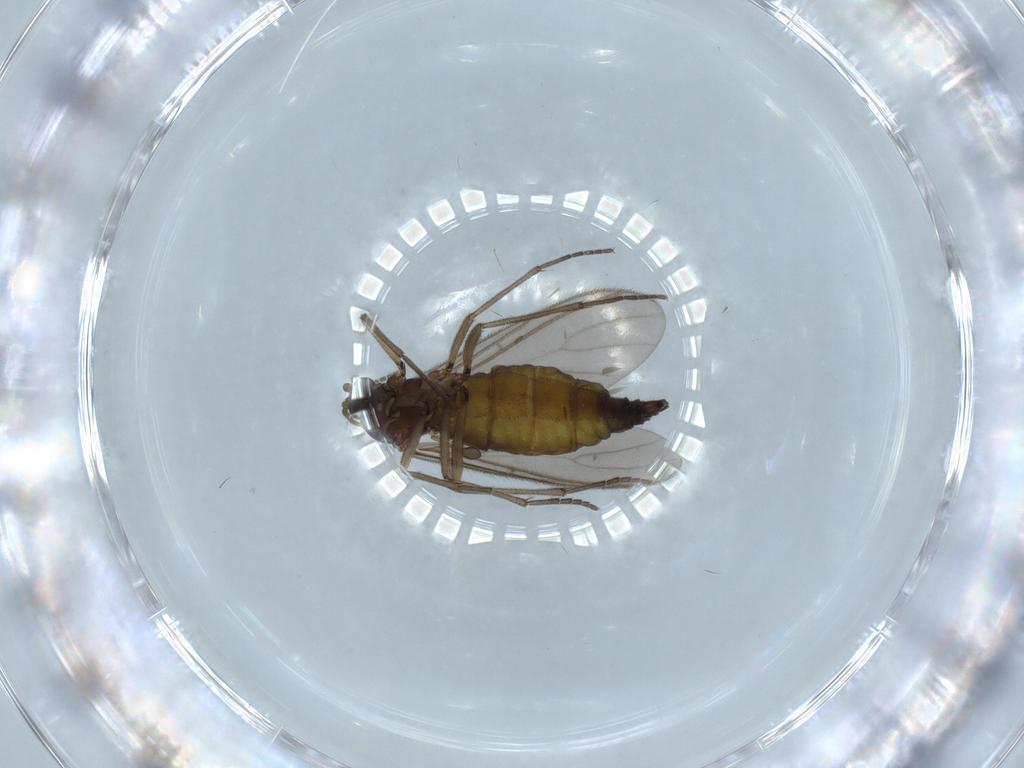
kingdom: Animalia
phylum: Arthropoda
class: Insecta
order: Diptera
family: Sciaridae
